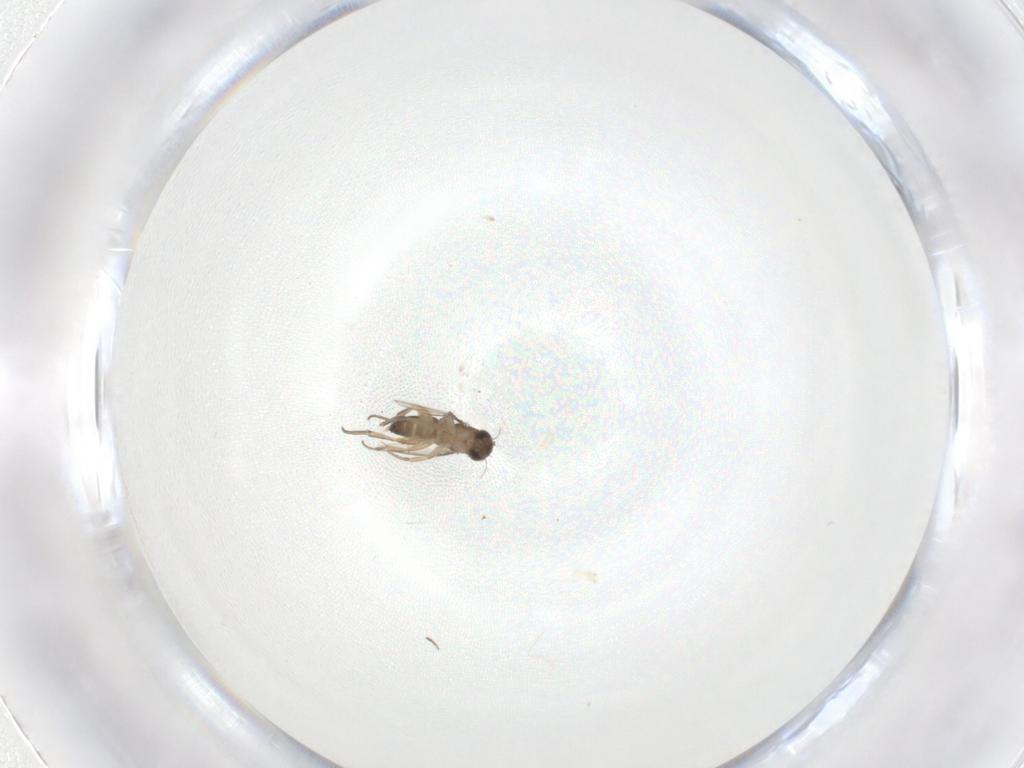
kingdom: Animalia
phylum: Arthropoda
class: Insecta
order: Diptera
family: Phoridae
